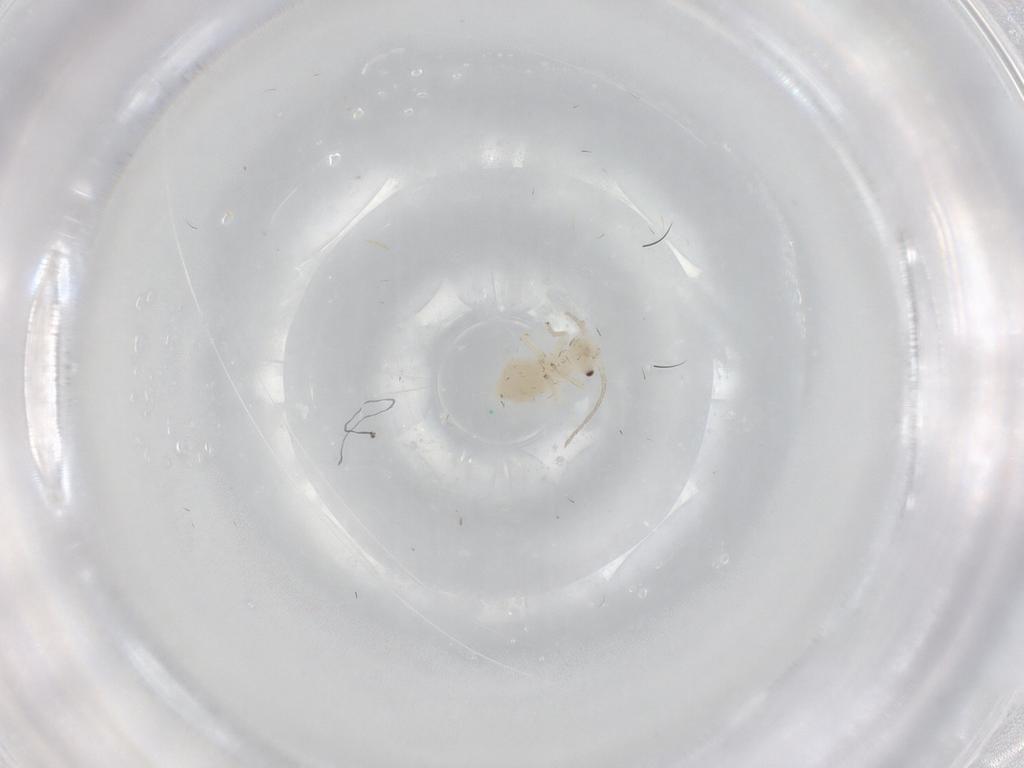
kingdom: Animalia
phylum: Arthropoda
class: Insecta
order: Psocodea
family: Caeciliusidae
